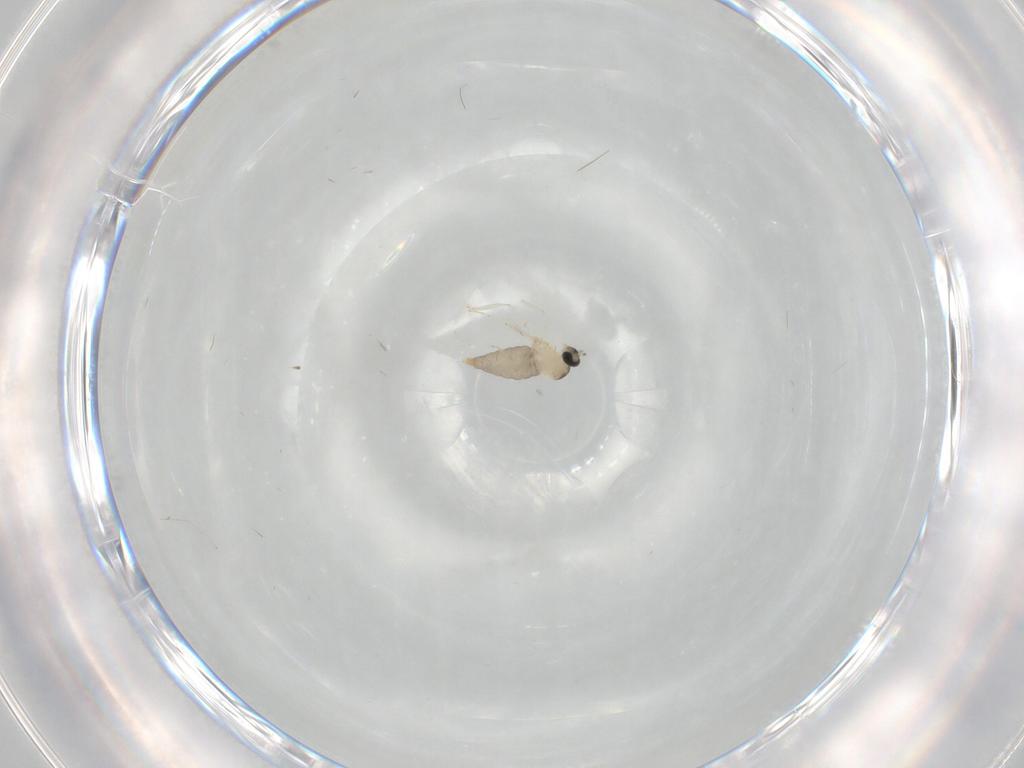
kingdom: Animalia
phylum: Arthropoda
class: Insecta
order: Diptera
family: Cecidomyiidae
